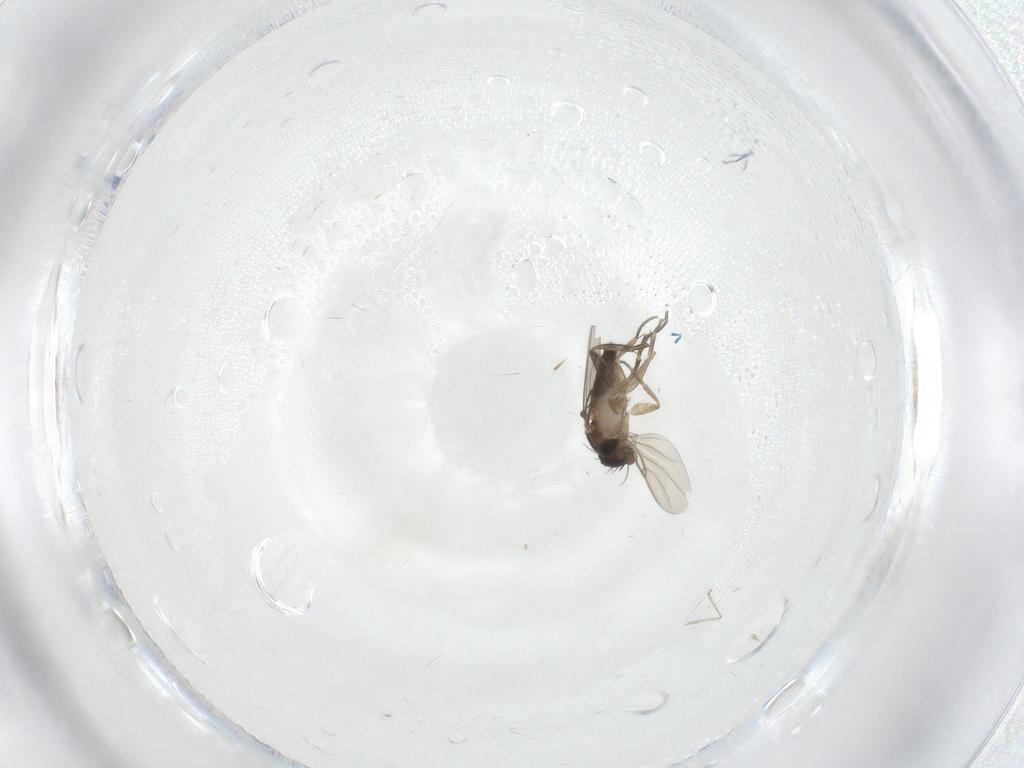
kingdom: Animalia
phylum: Arthropoda
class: Insecta
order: Diptera
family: Phoridae
